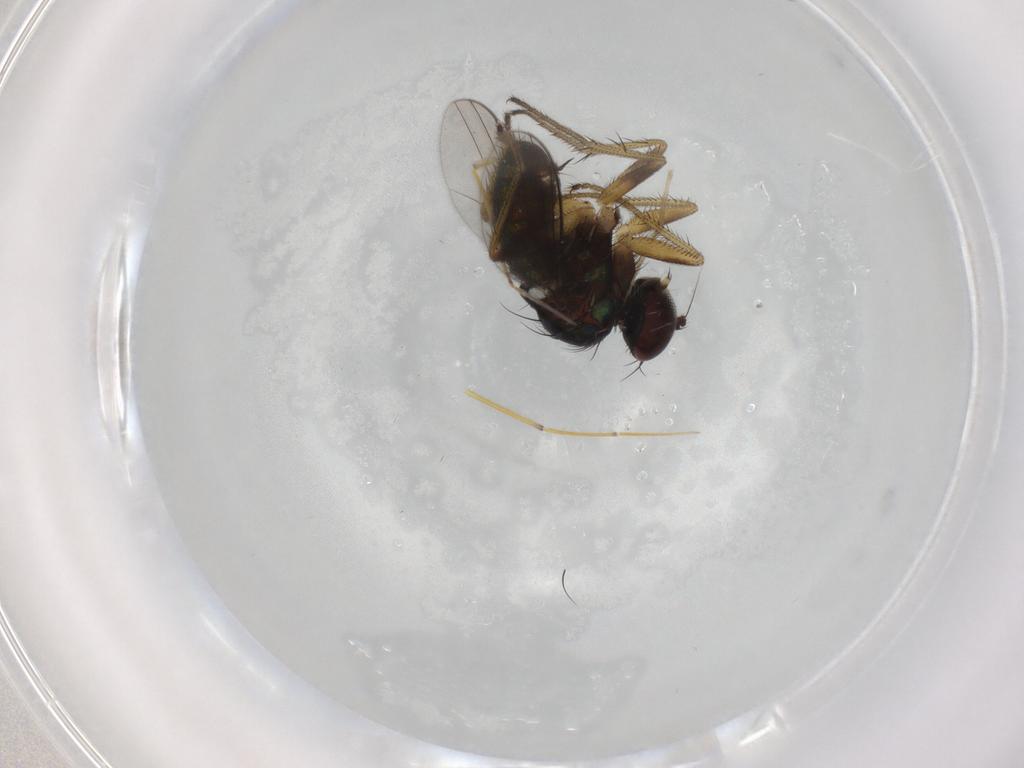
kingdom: Animalia
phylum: Arthropoda
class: Insecta
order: Diptera
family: Dolichopodidae
